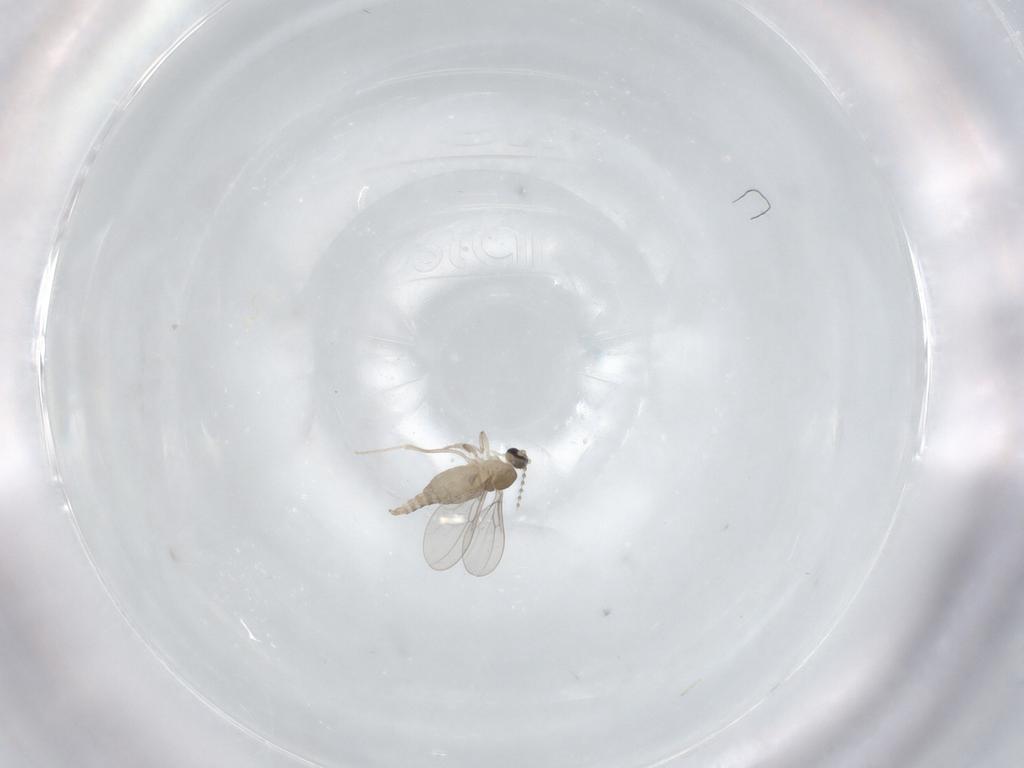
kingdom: Animalia
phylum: Arthropoda
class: Insecta
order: Diptera
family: Cecidomyiidae
